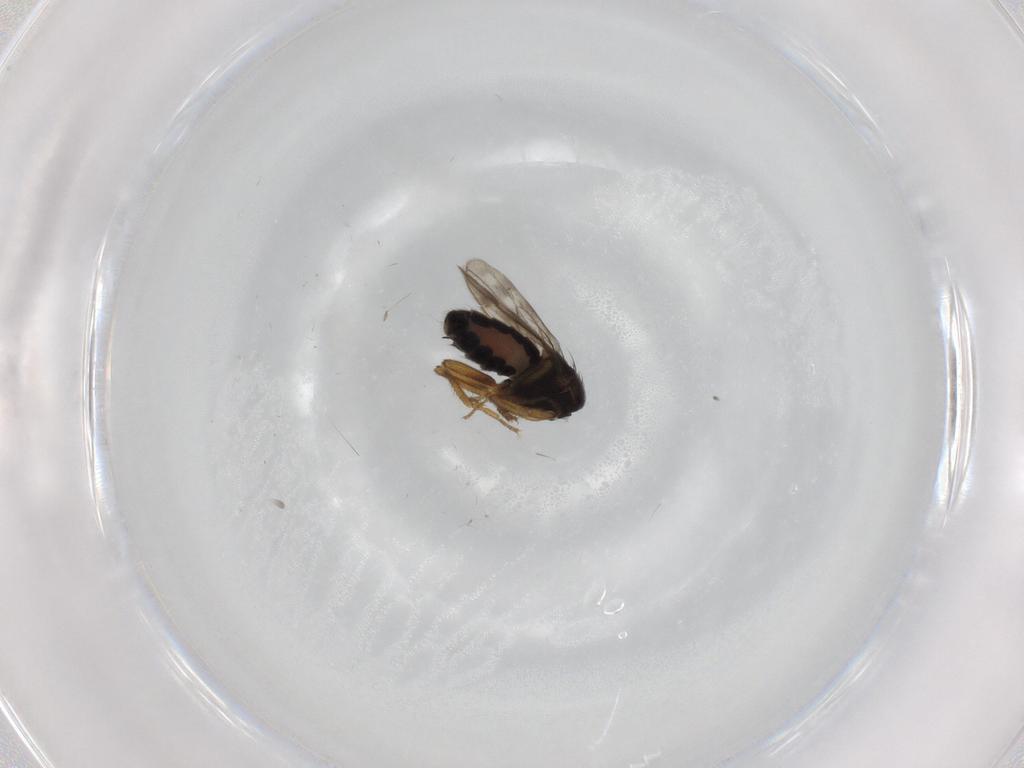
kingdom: Animalia
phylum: Arthropoda
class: Insecta
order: Diptera
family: Sphaeroceridae
